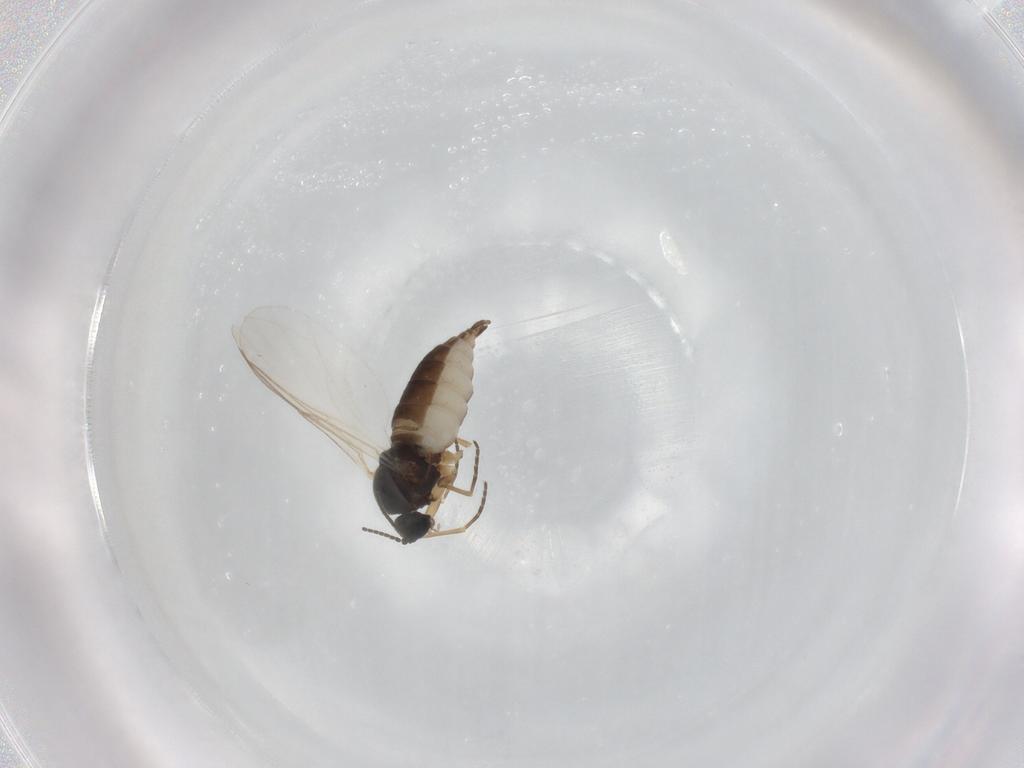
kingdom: Animalia
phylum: Arthropoda
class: Insecta
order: Diptera
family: Sciaridae
